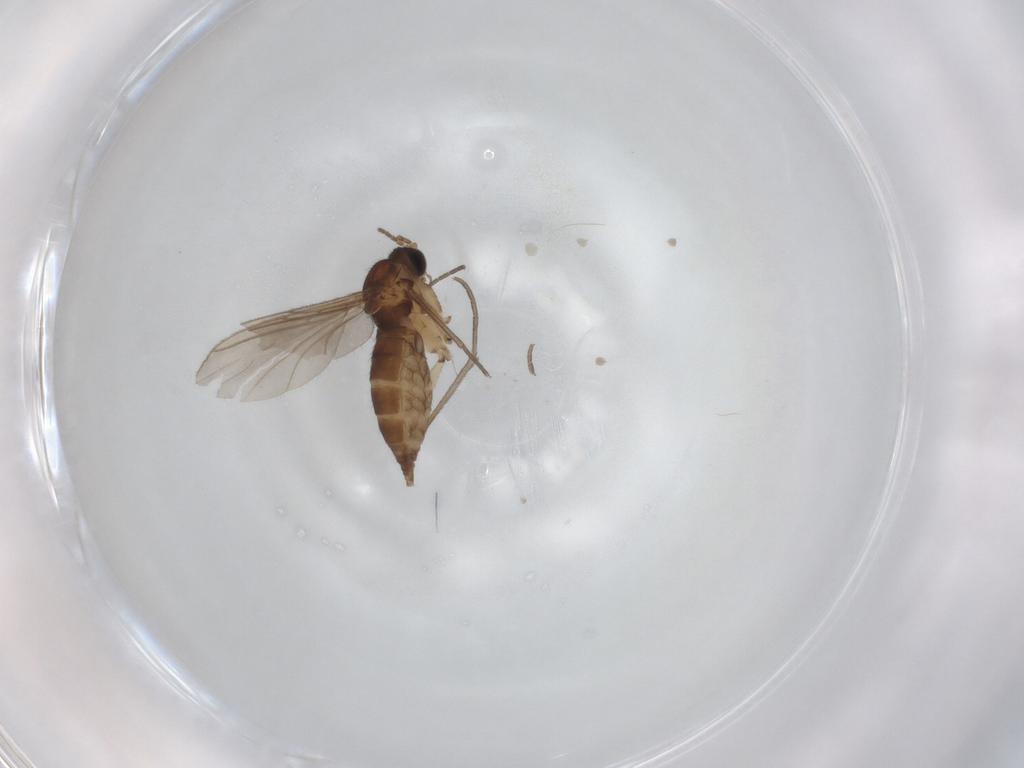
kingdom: Animalia
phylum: Arthropoda
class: Insecta
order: Diptera
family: Sciaridae
